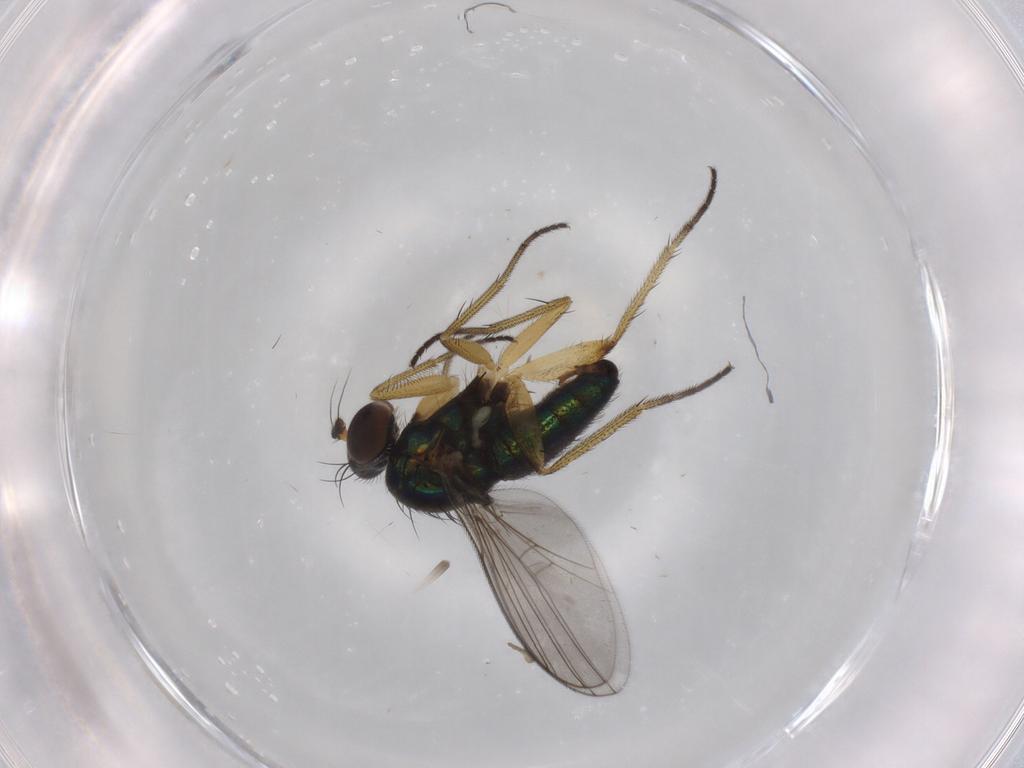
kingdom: Animalia
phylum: Arthropoda
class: Insecta
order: Diptera
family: Dolichopodidae
